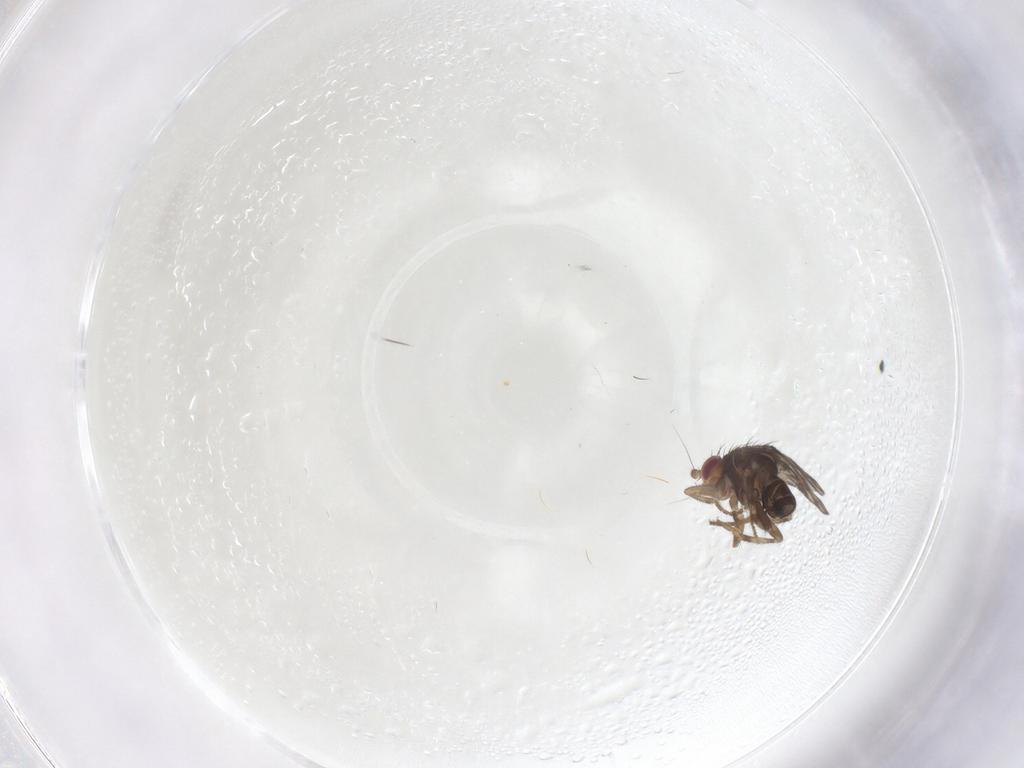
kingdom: Animalia
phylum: Arthropoda
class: Insecta
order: Diptera
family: Sphaeroceridae
